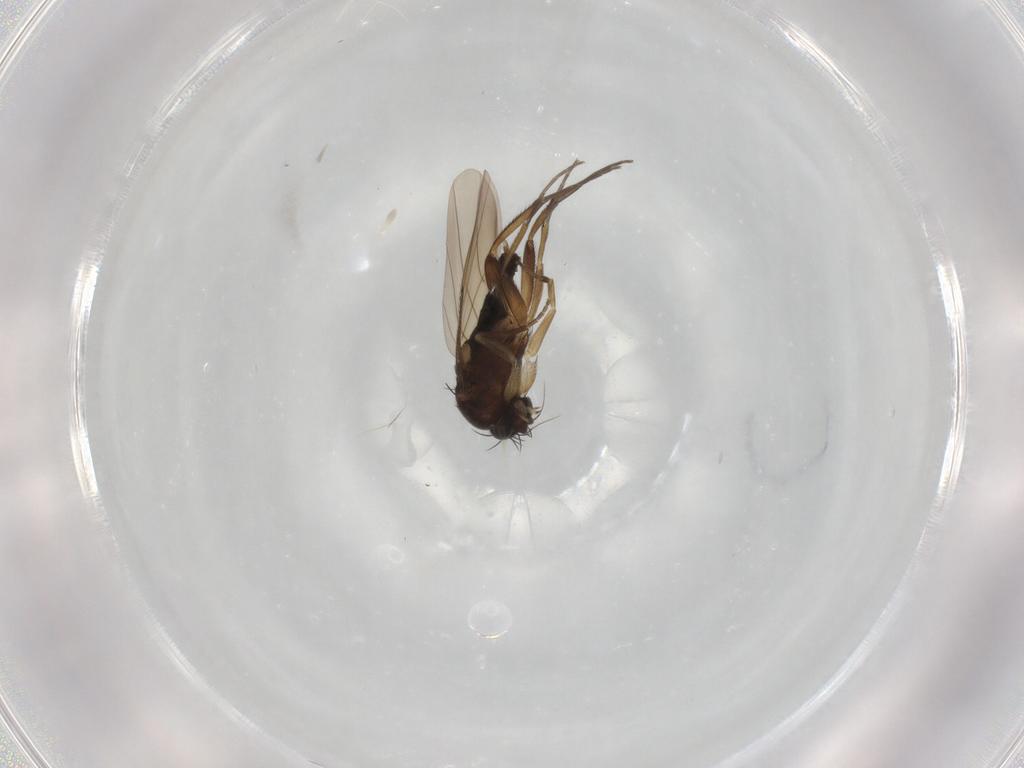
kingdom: Animalia
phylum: Arthropoda
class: Insecta
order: Diptera
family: Chloropidae
